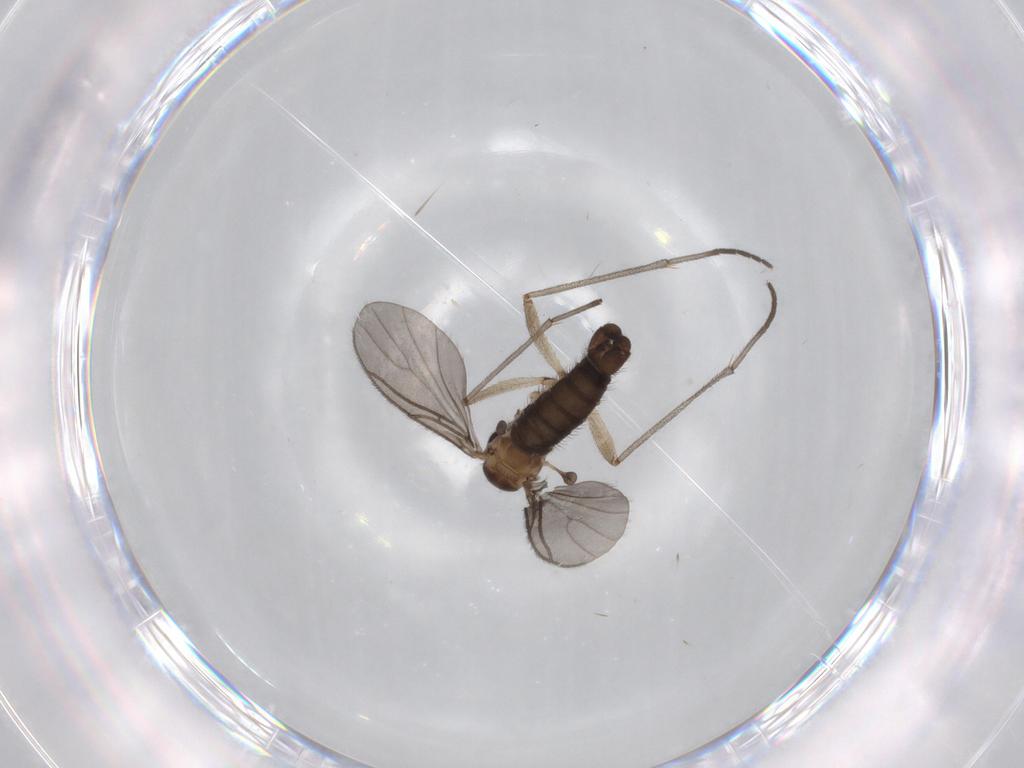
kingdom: Animalia
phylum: Arthropoda
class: Insecta
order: Diptera
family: Sciaridae
